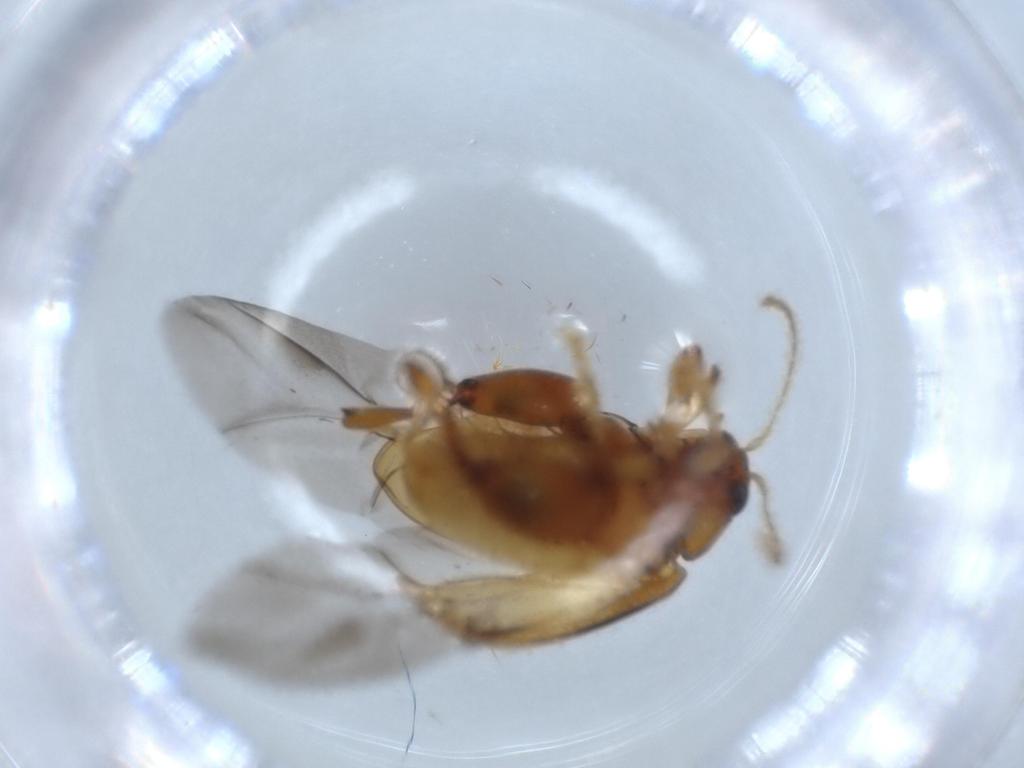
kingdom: Animalia
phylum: Arthropoda
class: Insecta
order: Coleoptera
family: Chrysomelidae
